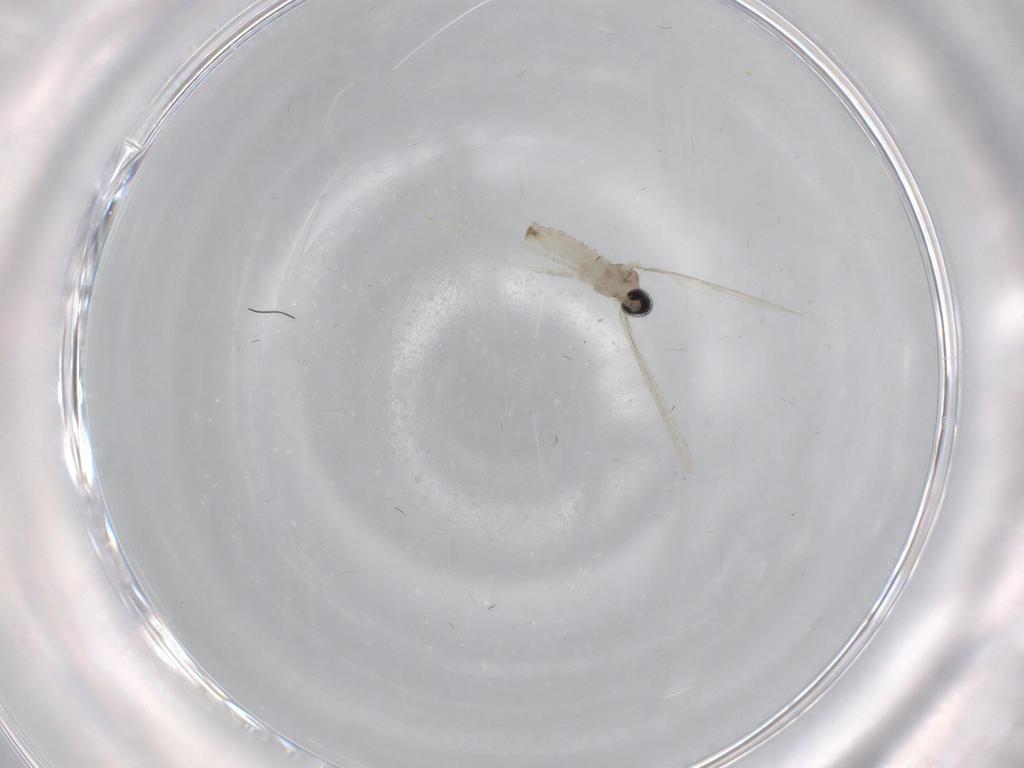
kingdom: Animalia
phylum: Arthropoda
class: Insecta
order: Diptera
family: Cecidomyiidae
